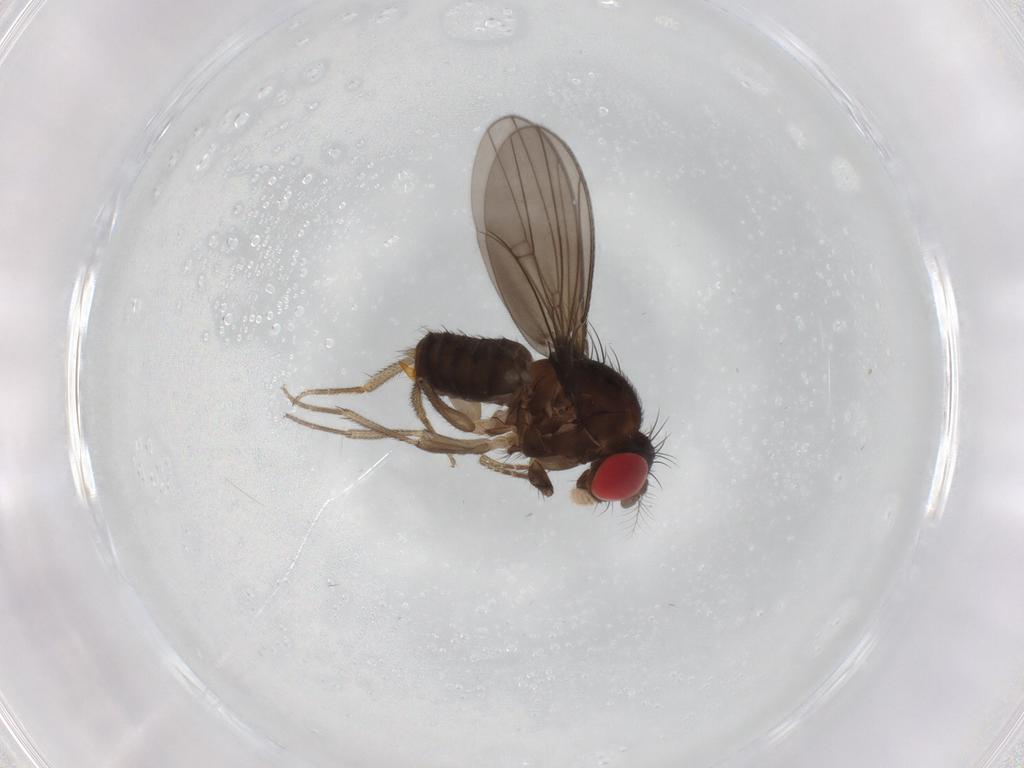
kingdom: Animalia
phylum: Arthropoda
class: Insecta
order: Diptera
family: Drosophilidae
